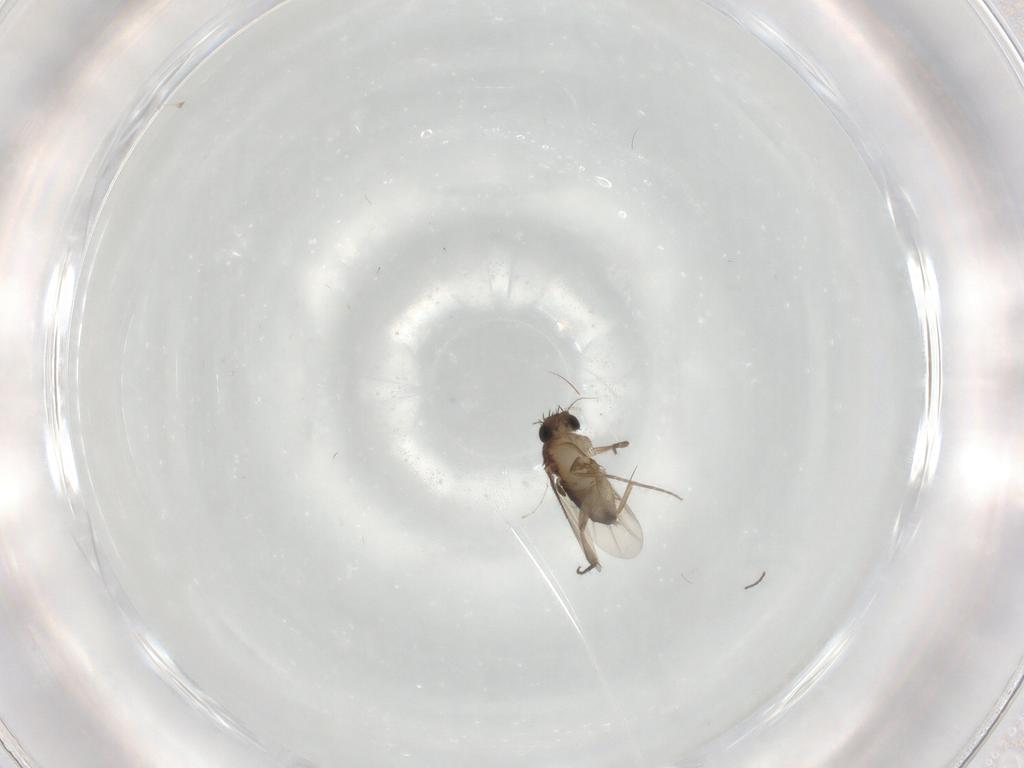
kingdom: Animalia
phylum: Arthropoda
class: Insecta
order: Diptera
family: Phoridae
